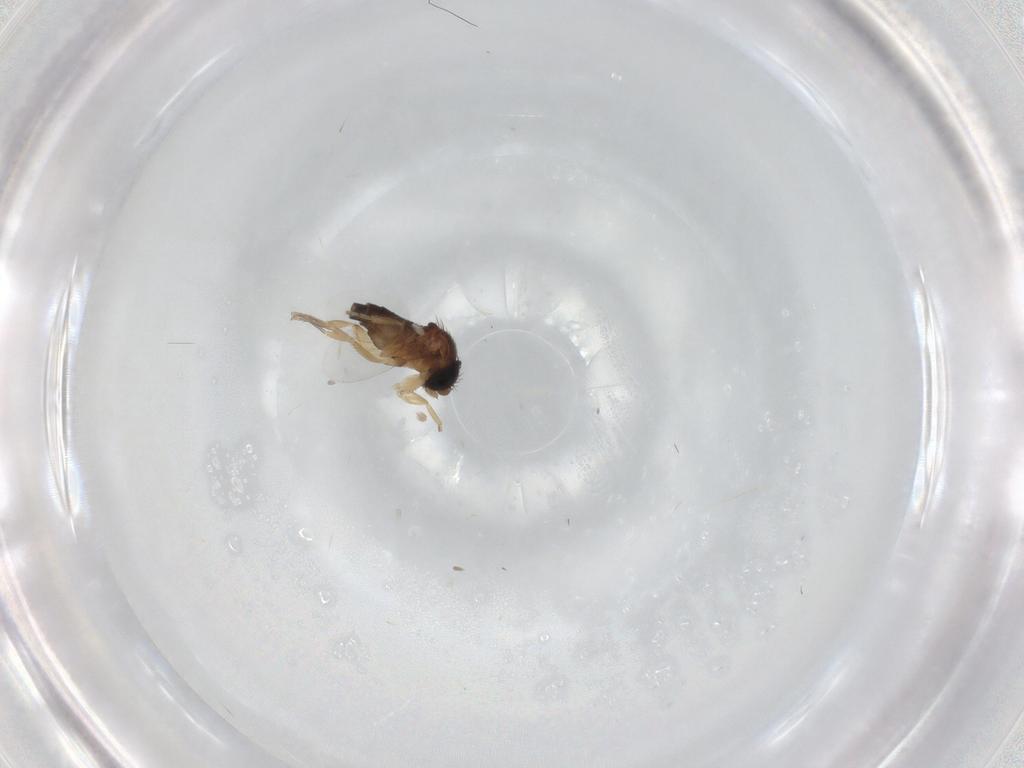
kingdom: Animalia
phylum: Arthropoda
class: Insecta
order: Diptera
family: Phoridae
